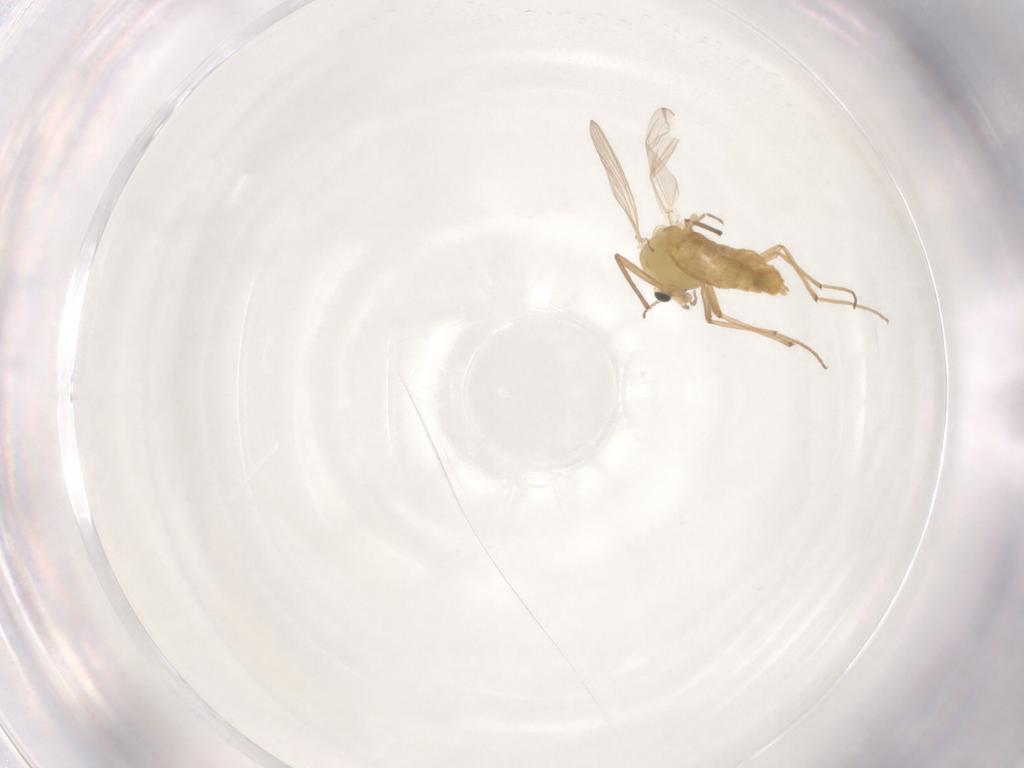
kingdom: Animalia
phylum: Arthropoda
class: Insecta
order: Diptera
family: Chironomidae
